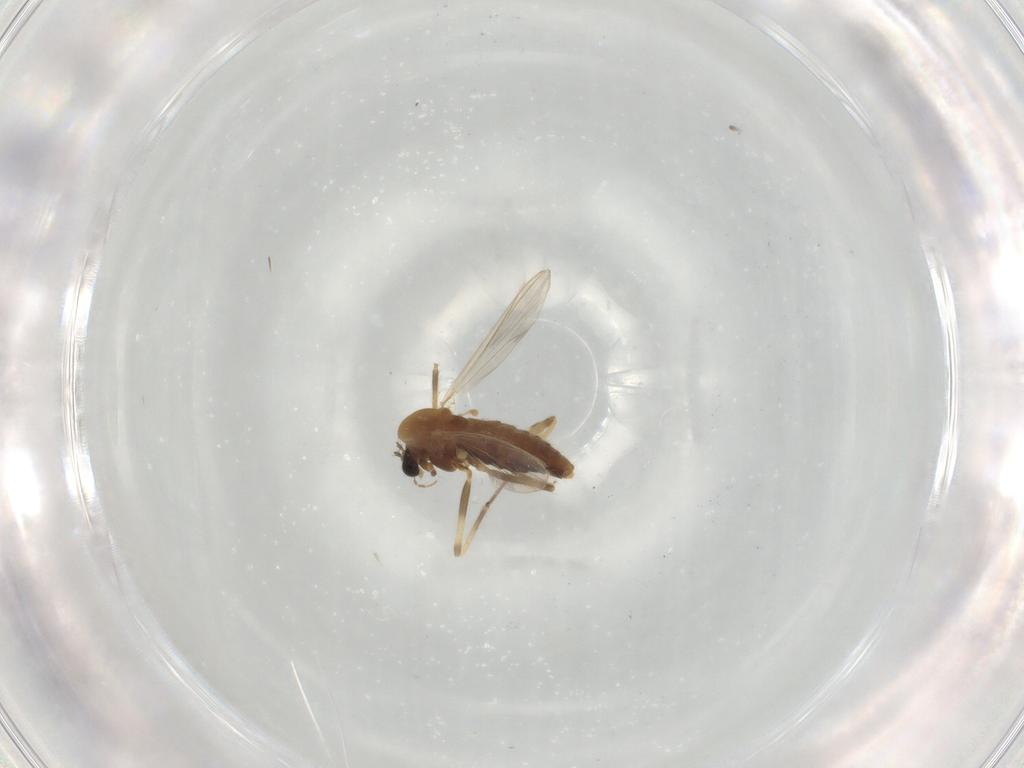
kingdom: Animalia
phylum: Arthropoda
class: Insecta
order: Diptera
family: Chironomidae
